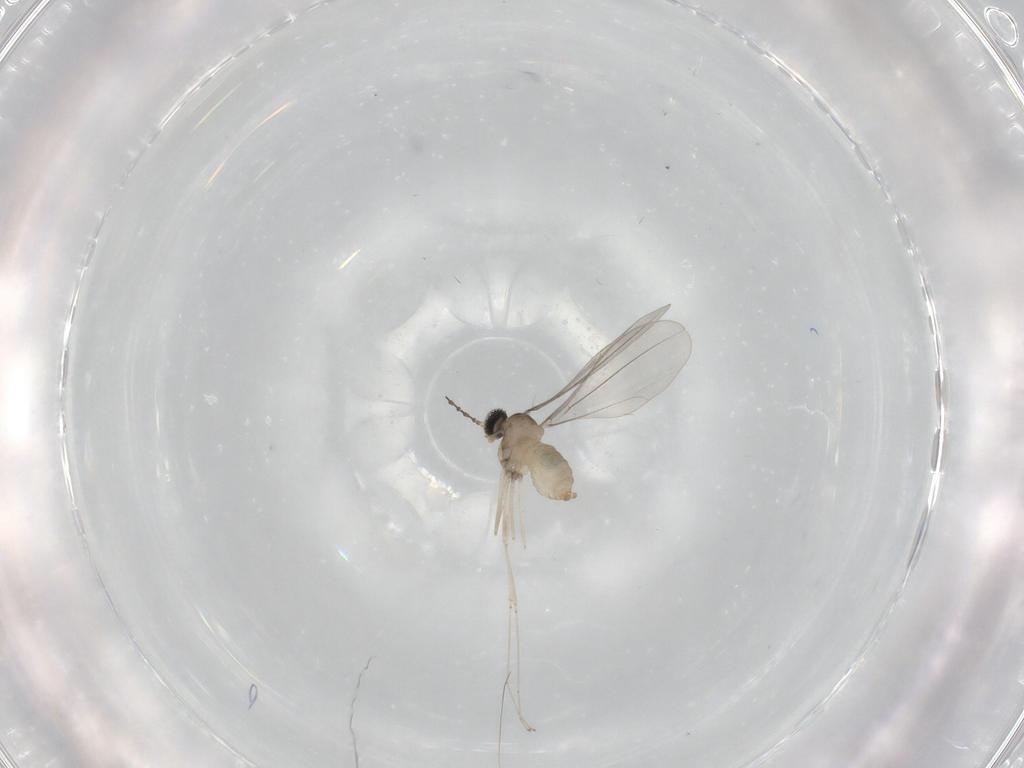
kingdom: Animalia
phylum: Arthropoda
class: Insecta
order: Diptera
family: Cecidomyiidae
